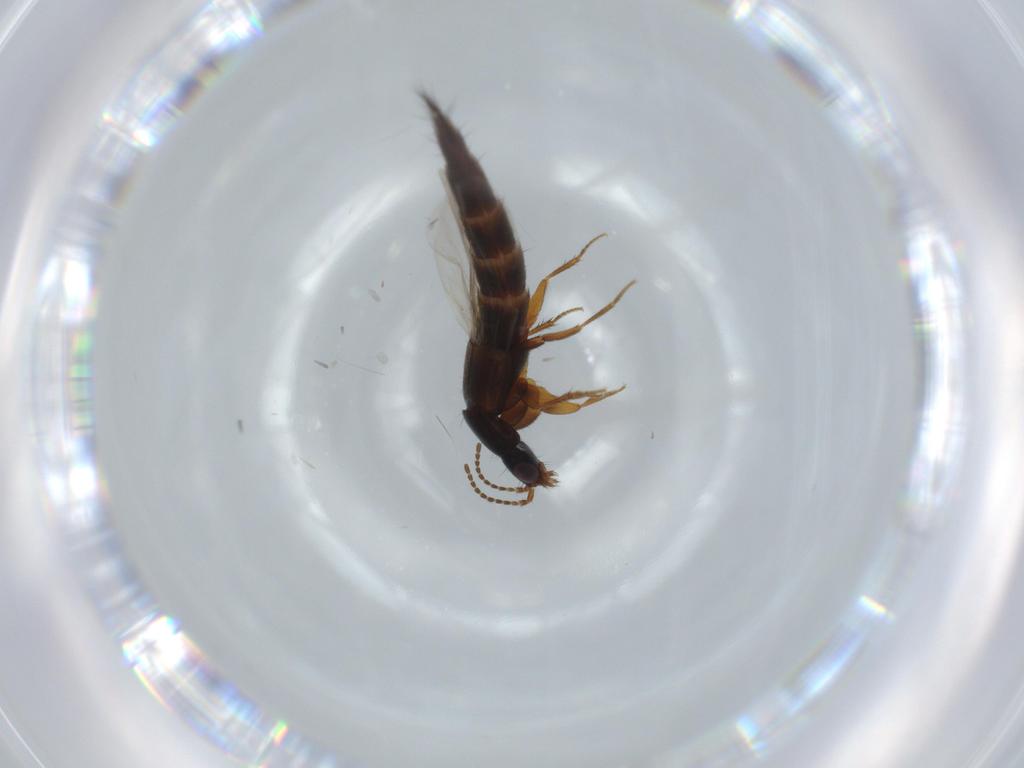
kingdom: Animalia
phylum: Arthropoda
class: Insecta
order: Coleoptera
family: Staphylinidae
